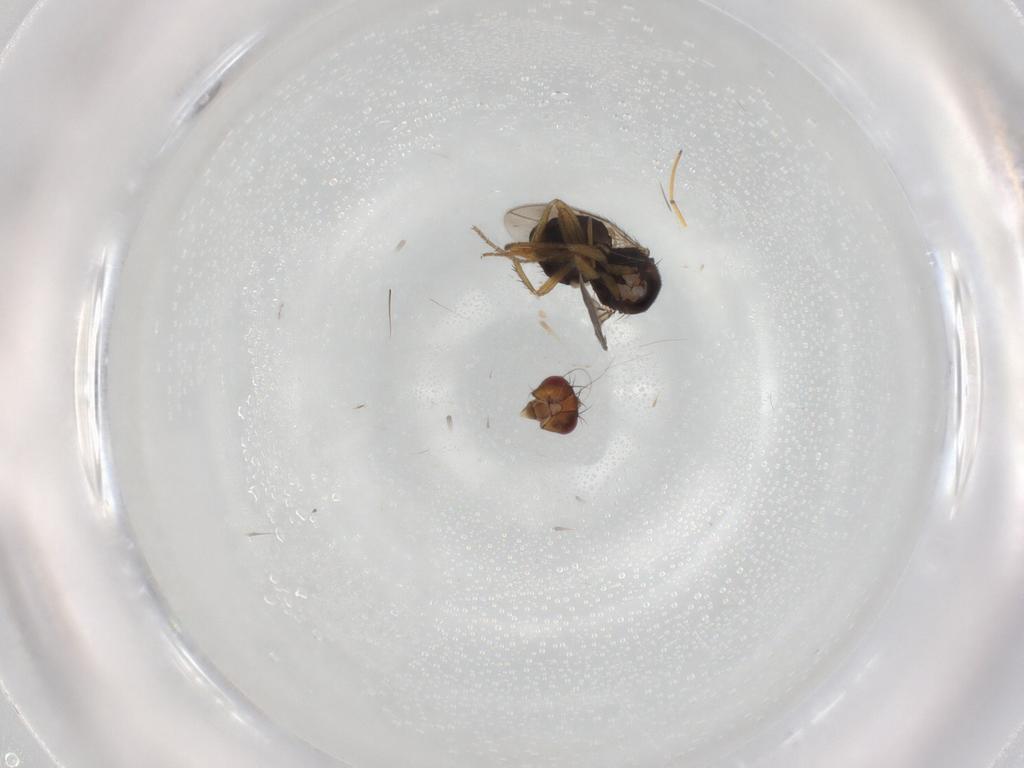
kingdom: Animalia
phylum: Arthropoda
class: Insecta
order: Diptera
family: Sphaeroceridae
